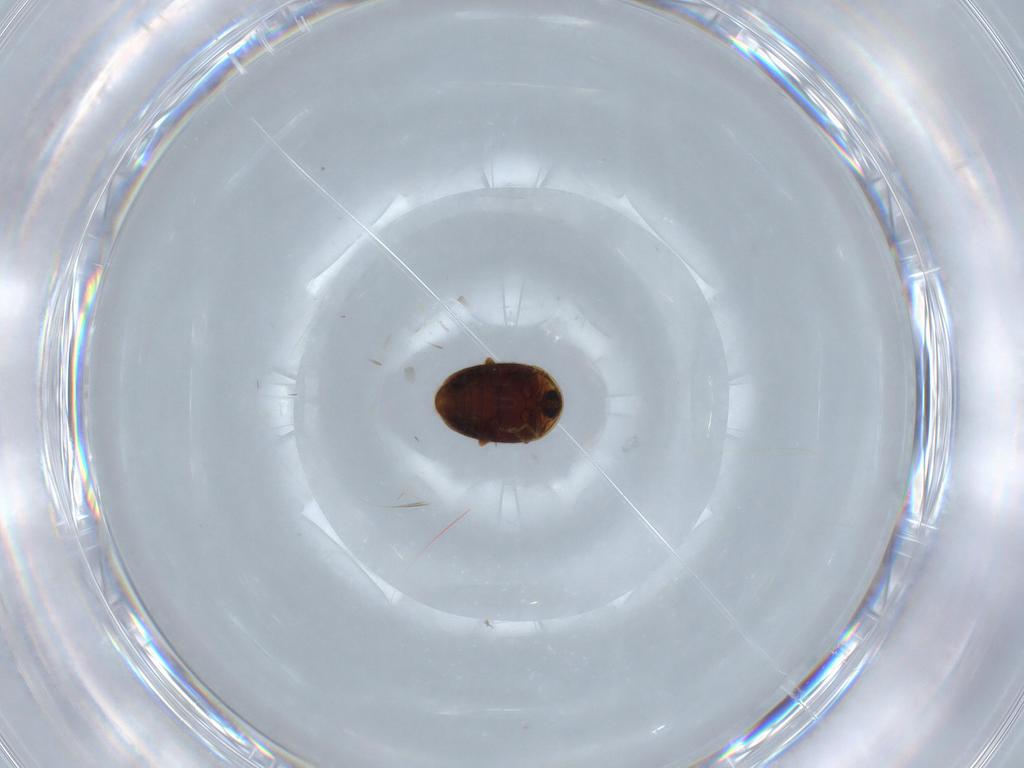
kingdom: Animalia
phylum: Arthropoda
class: Insecta
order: Coleoptera
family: Corylophidae
